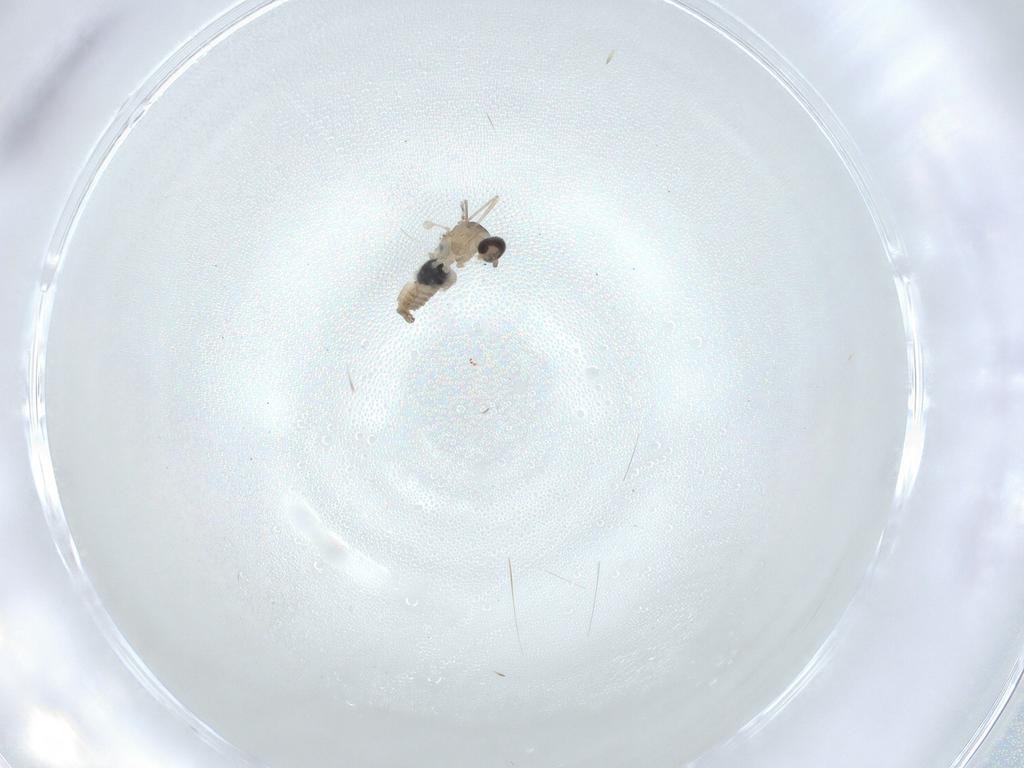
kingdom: Animalia
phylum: Arthropoda
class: Insecta
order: Diptera
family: Cecidomyiidae
